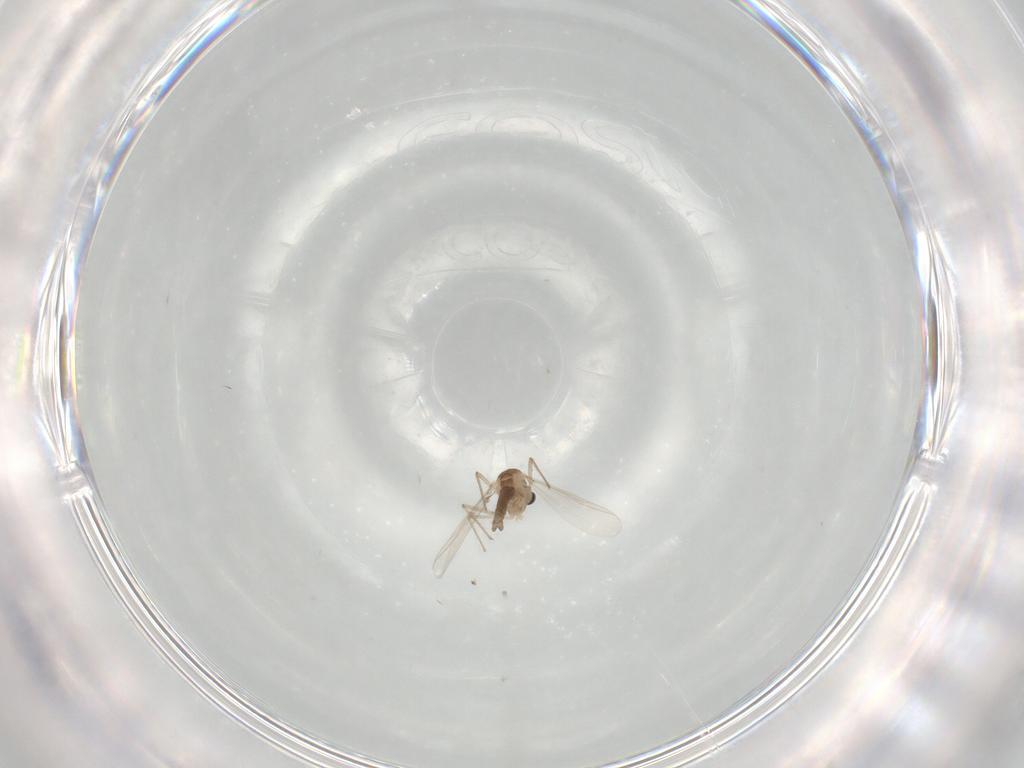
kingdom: Animalia
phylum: Arthropoda
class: Insecta
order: Diptera
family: Chironomidae
